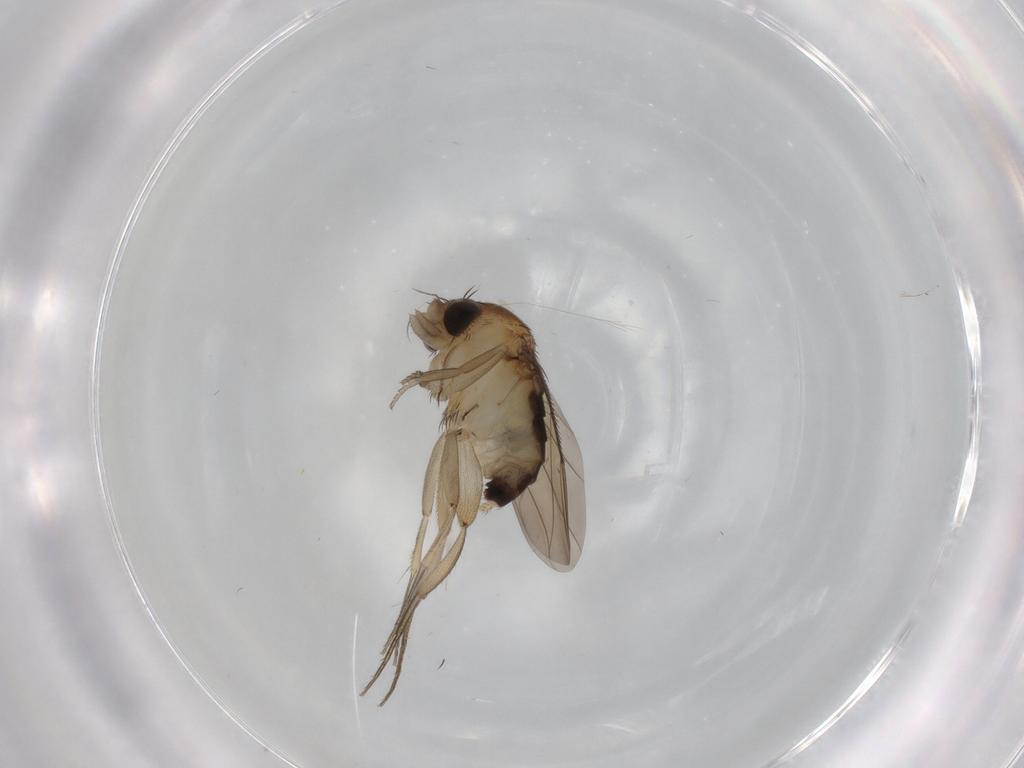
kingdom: Animalia
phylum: Arthropoda
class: Insecta
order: Diptera
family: Phoridae
